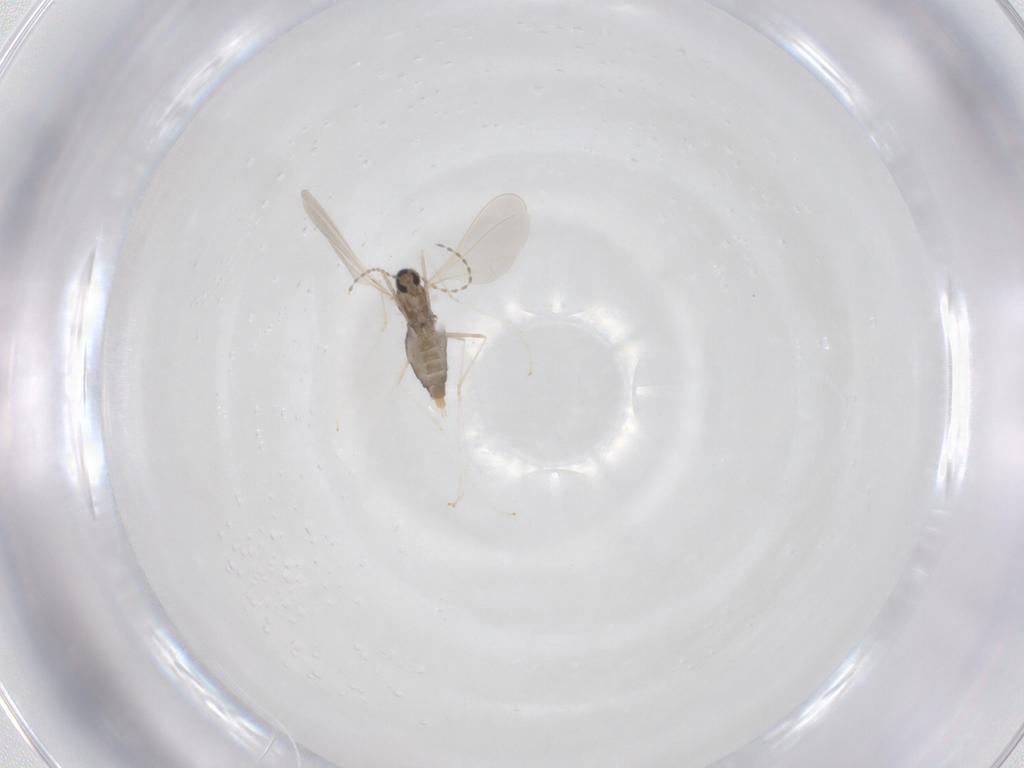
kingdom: Animalia
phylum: Arthropoda
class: Insecta
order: Diptera
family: Cecidomyiidae
